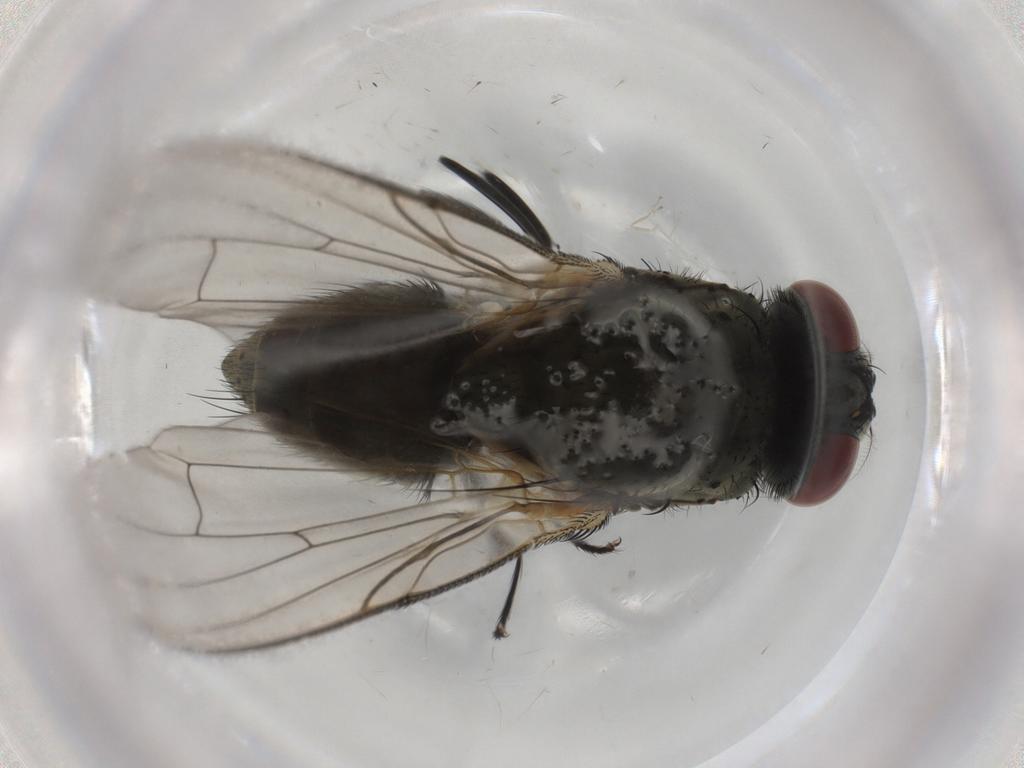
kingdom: Animalia
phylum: Arthropoda
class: Insecta
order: Diptera
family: Muscidae
